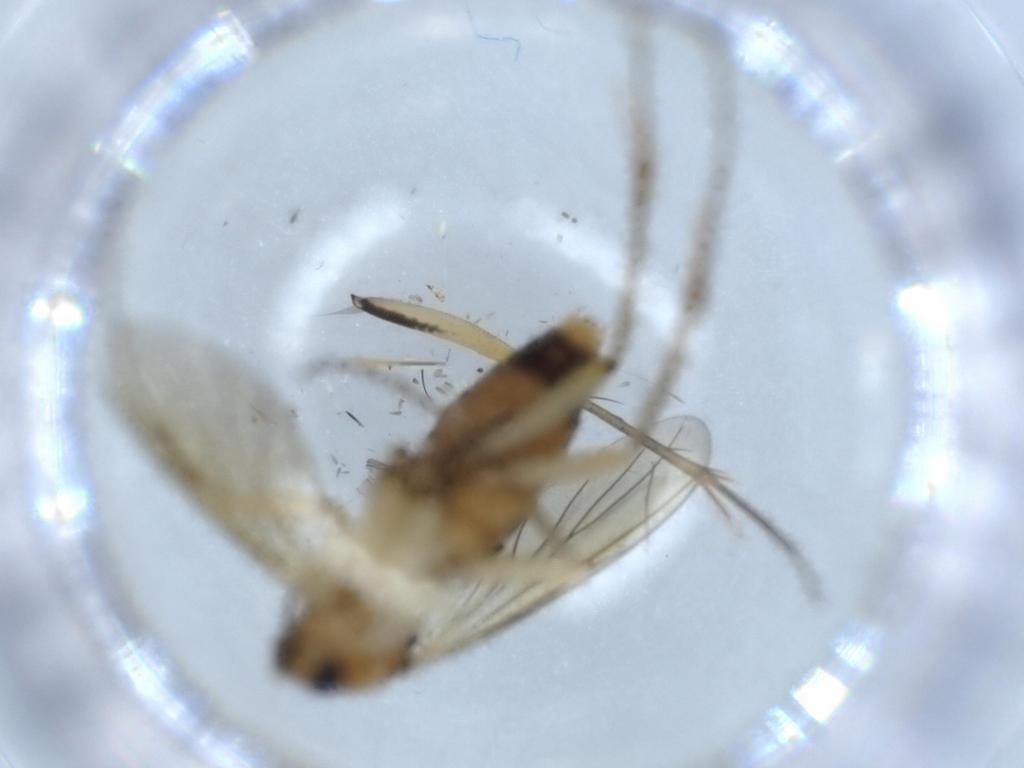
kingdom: Animalia
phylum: Arthropoda
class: Insecta
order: Diptera
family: Mycetophilidae
